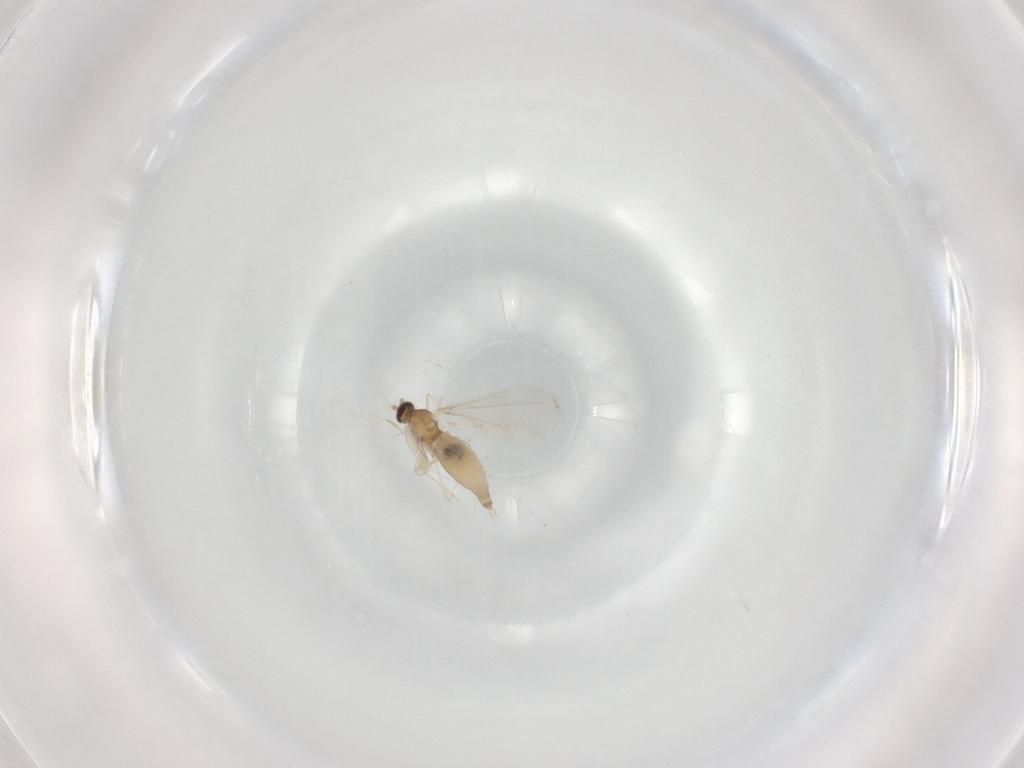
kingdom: Animalia
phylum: Arthropoda
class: Insecta
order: Diptera
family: Cecidomyiidae
